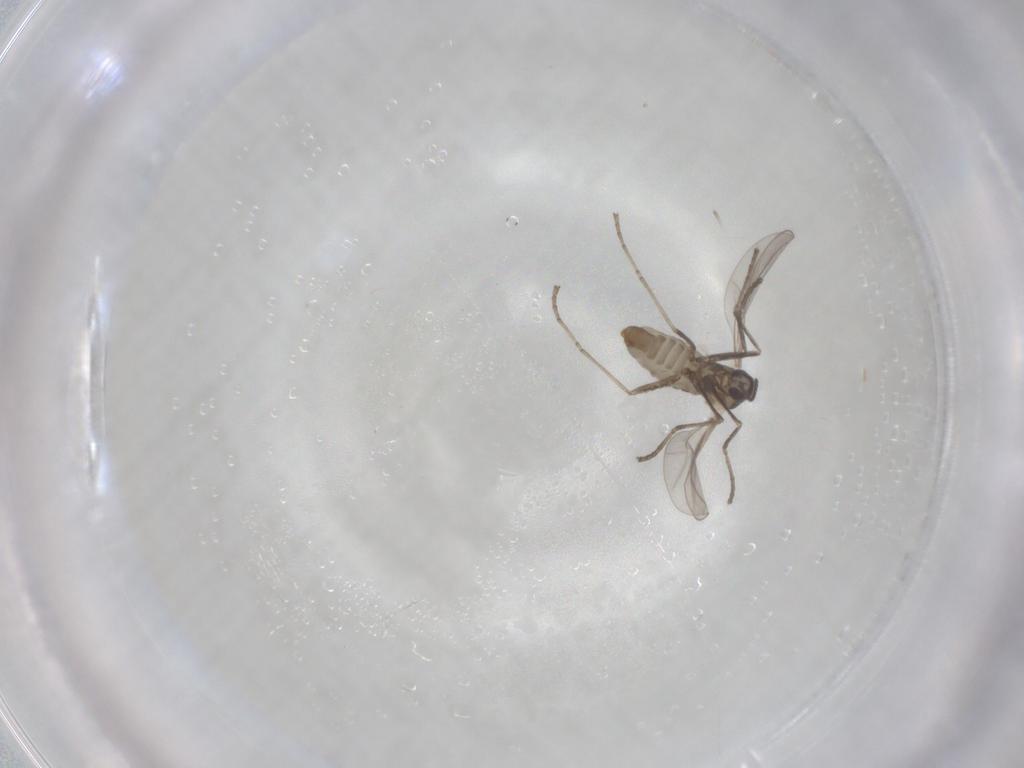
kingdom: Animalia
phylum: Arthropoda
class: Insecta
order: Diptera
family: Cecidomyiidae
